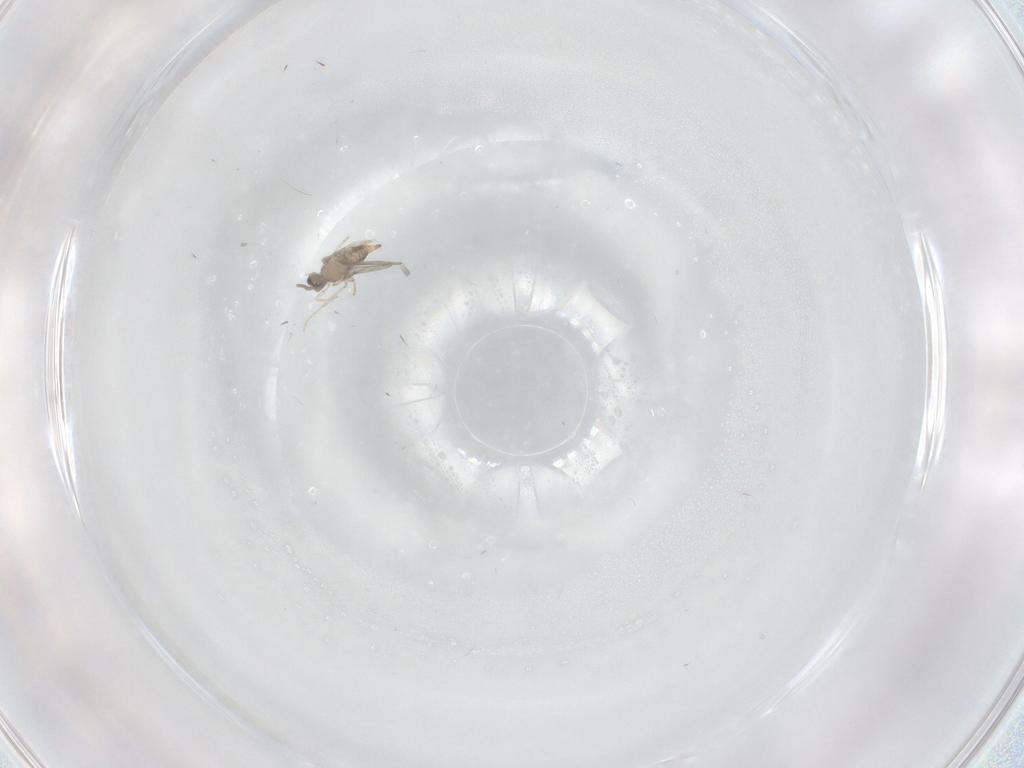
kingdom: Animalia
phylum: Arthropoda
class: Insecta
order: Diptera
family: Cecidomyiidae
